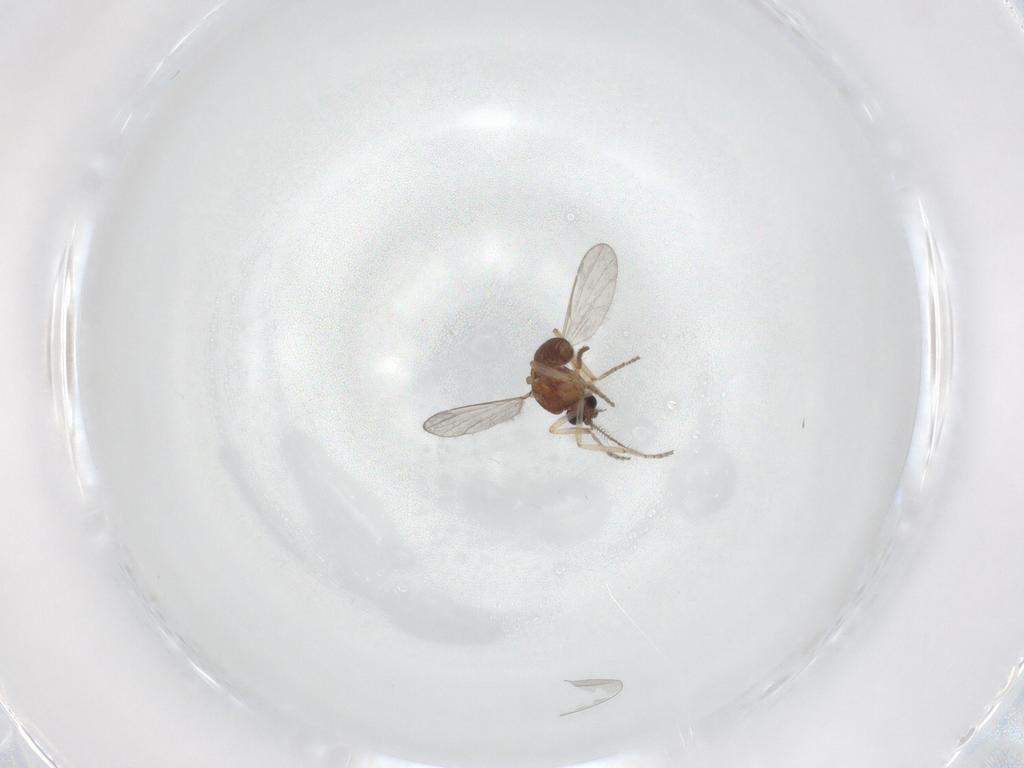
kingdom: Animalia
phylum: Arthropoda
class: Insecta
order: Diptera
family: Ceratopogonidae
